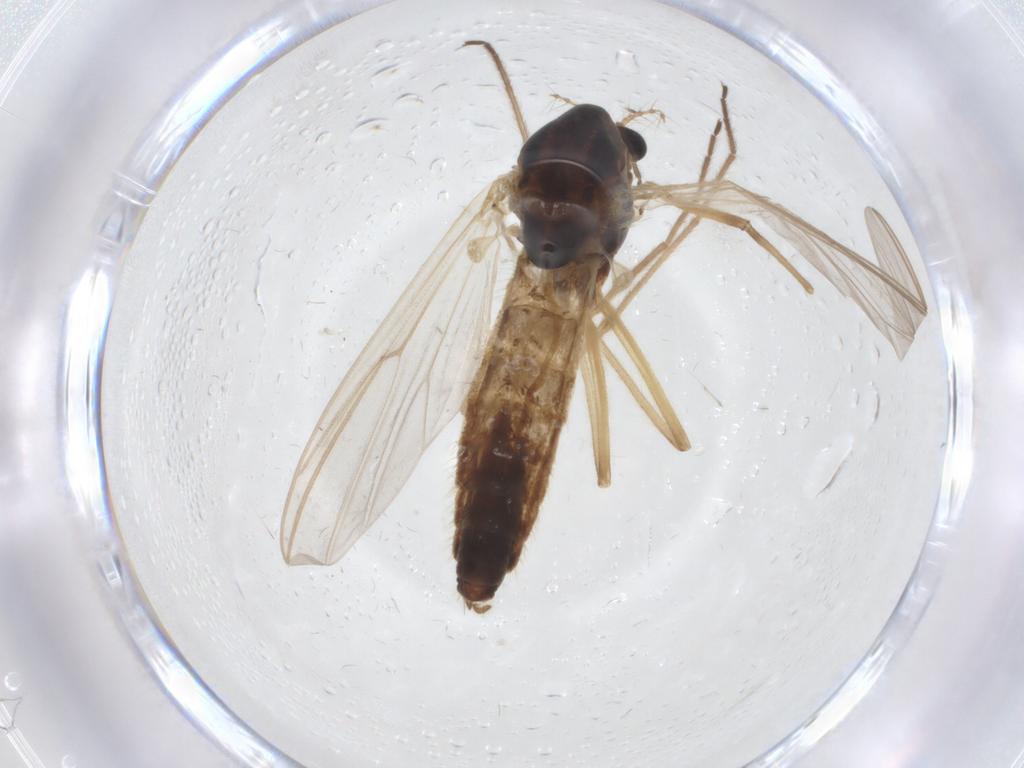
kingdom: Animalia
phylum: Arthropoda
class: Insecta
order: Diptera
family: Chironomidae
